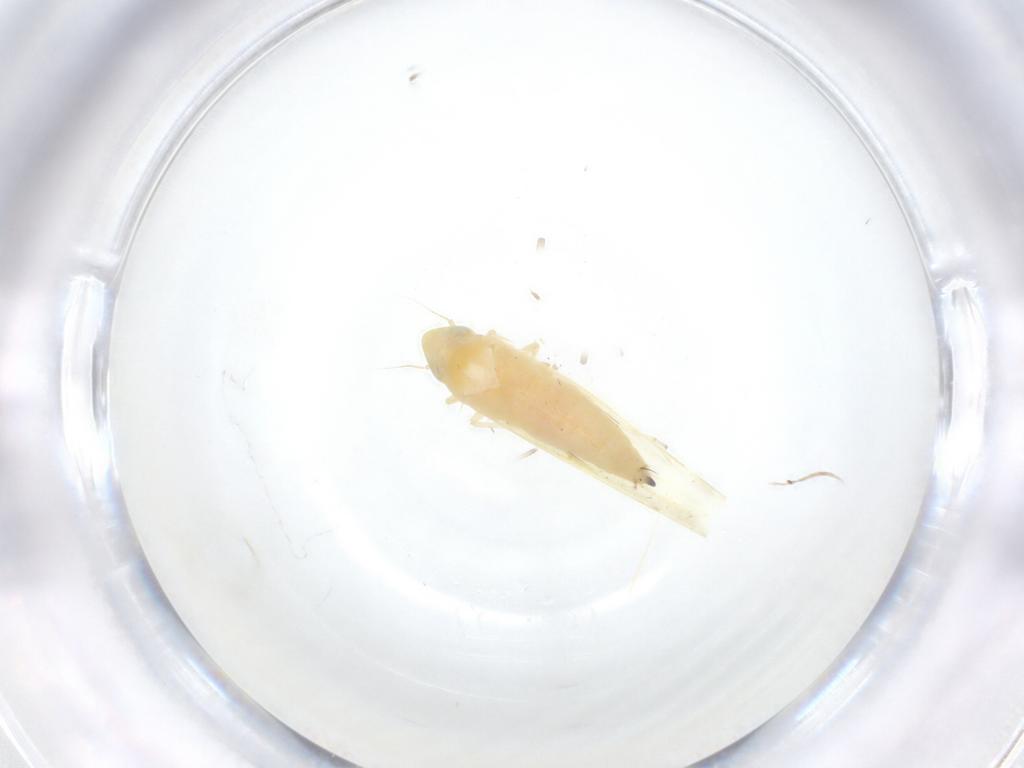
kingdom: Animalia
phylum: Arthropoda
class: Insecta
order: Hemiptera
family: Cicadellidae
